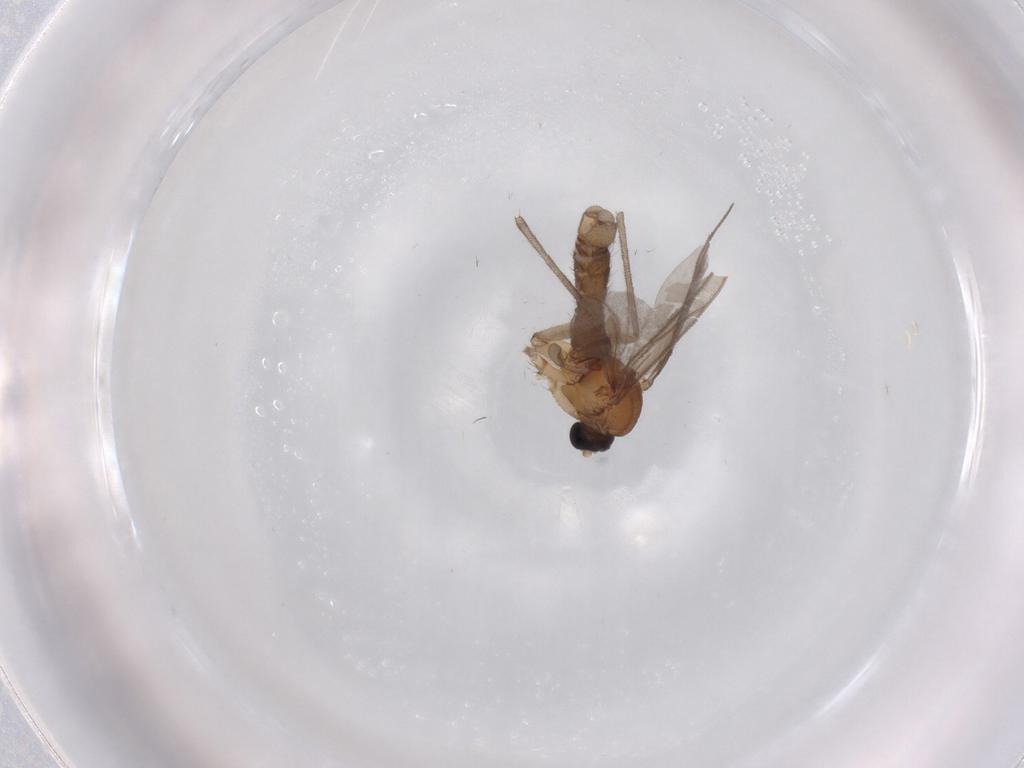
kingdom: Animalia
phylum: Arthropoda
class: Insecta
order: Diptera
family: Sciaridae
